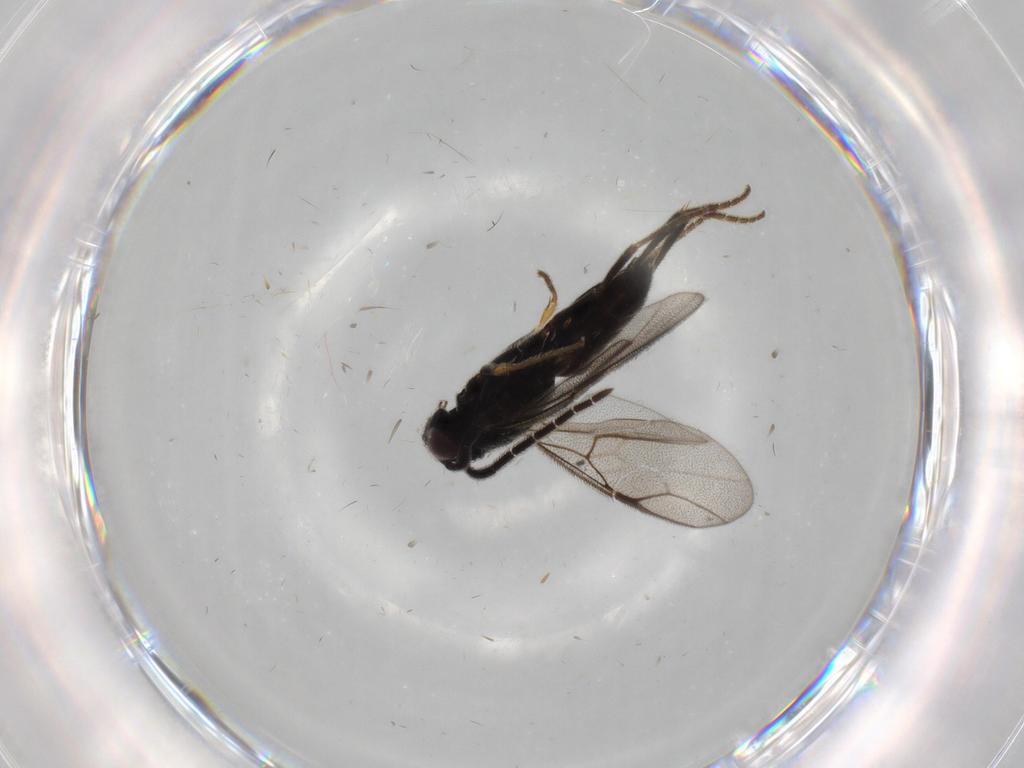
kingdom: Animalia
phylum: Arthropoda
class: Insecta
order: Hymenoptera
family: Dryinidae
